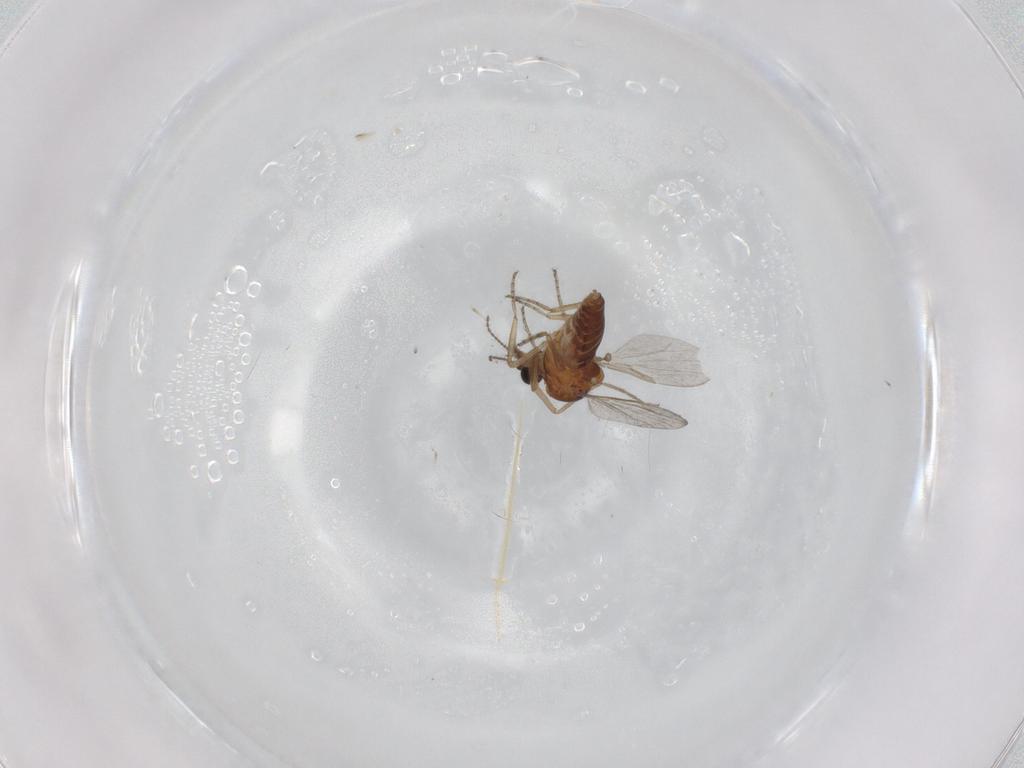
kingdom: Animalia
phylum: Arthropoda
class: Insecta
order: Diptera
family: Ceratopogonidae
